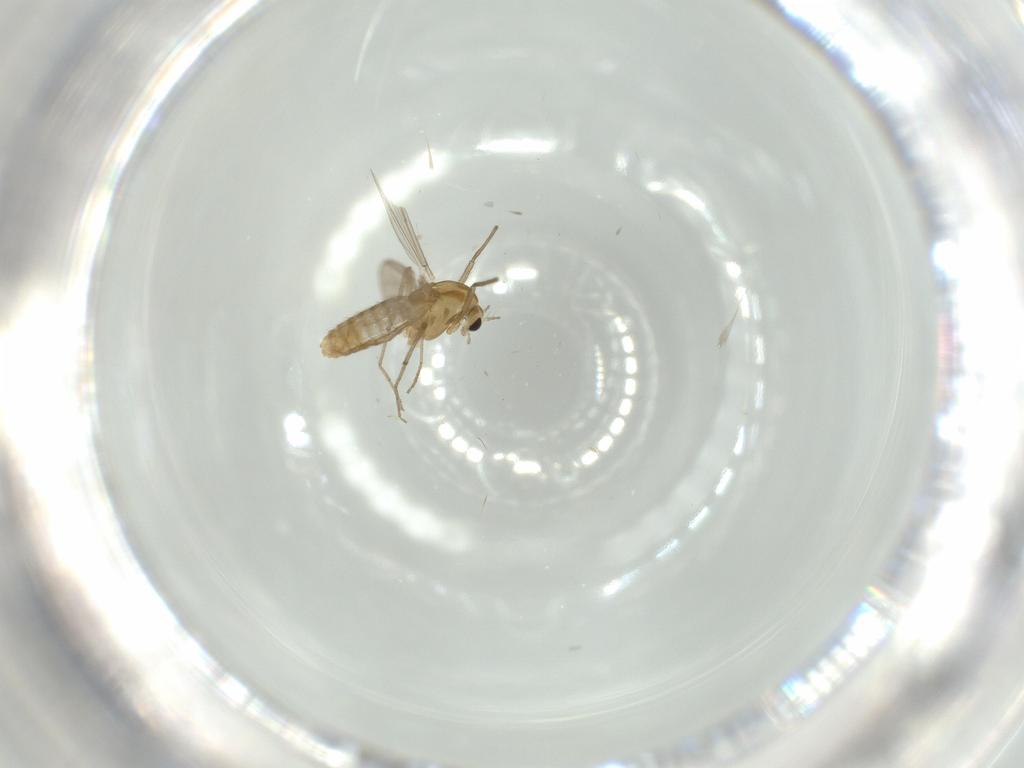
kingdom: Animalia
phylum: Arthropoda
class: Insecta
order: Diptera
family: Chironomidae
